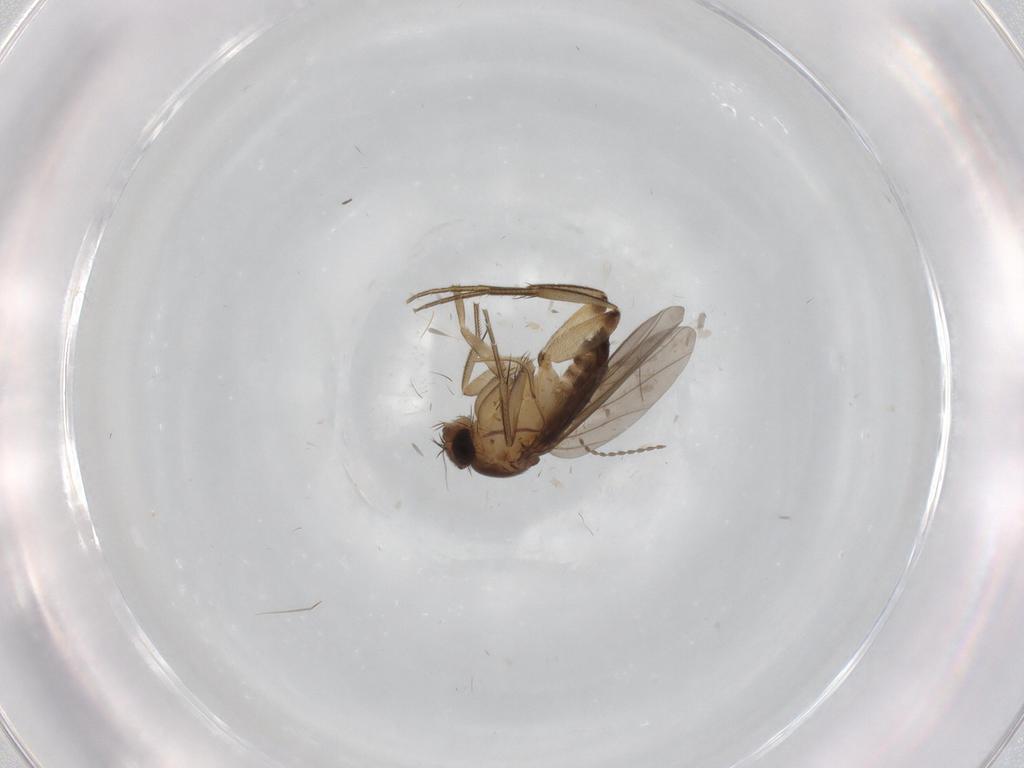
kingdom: Animalia
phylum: Arthropoda
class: Insecta
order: Diptera
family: Phoridae
